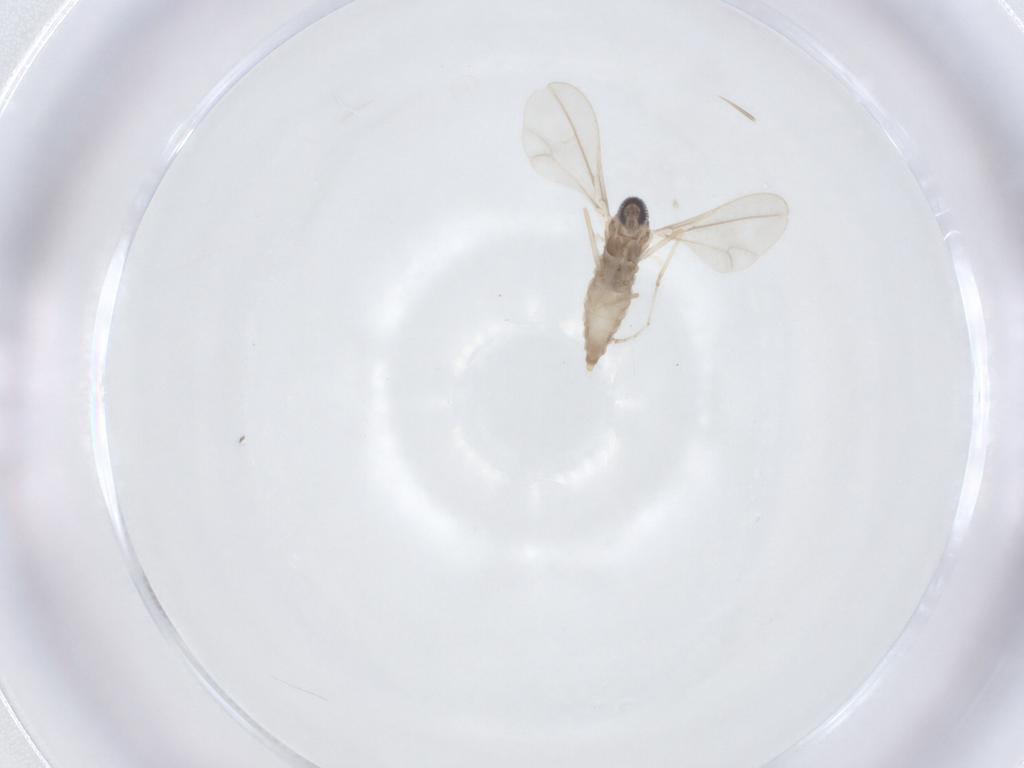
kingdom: Animalia
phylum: Arthropoda
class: Insecta
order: Diptera
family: Cecidomyiidae
